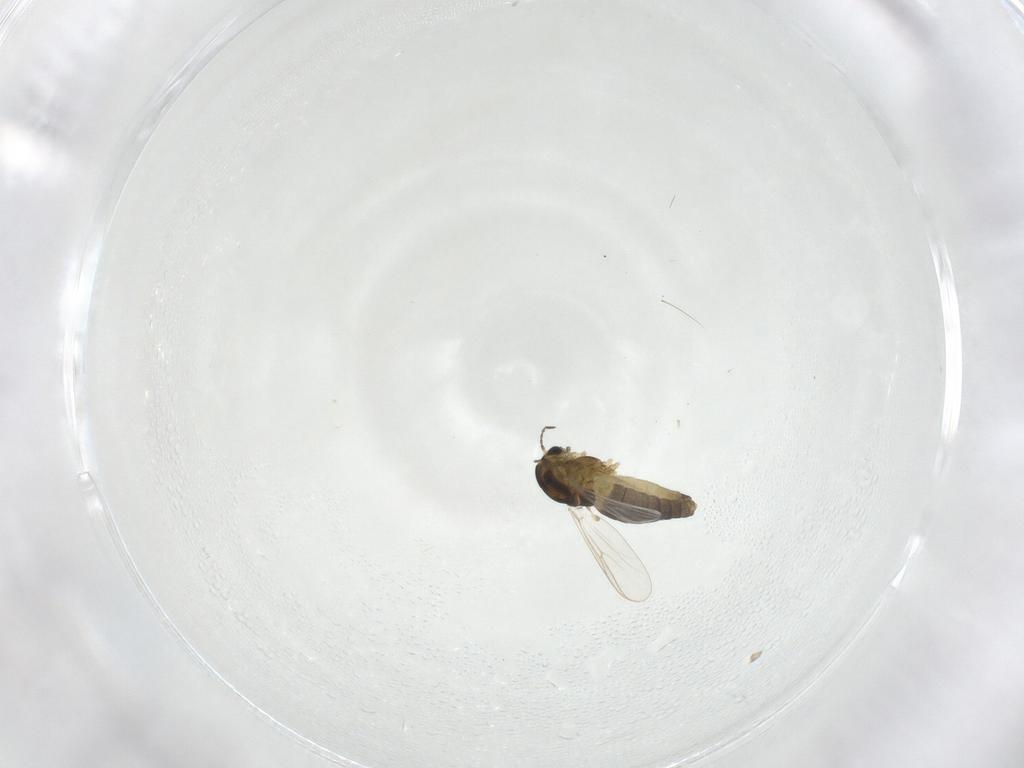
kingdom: Animalia
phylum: Arthropoda
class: Insecta
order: Diptera
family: Chironomidae
